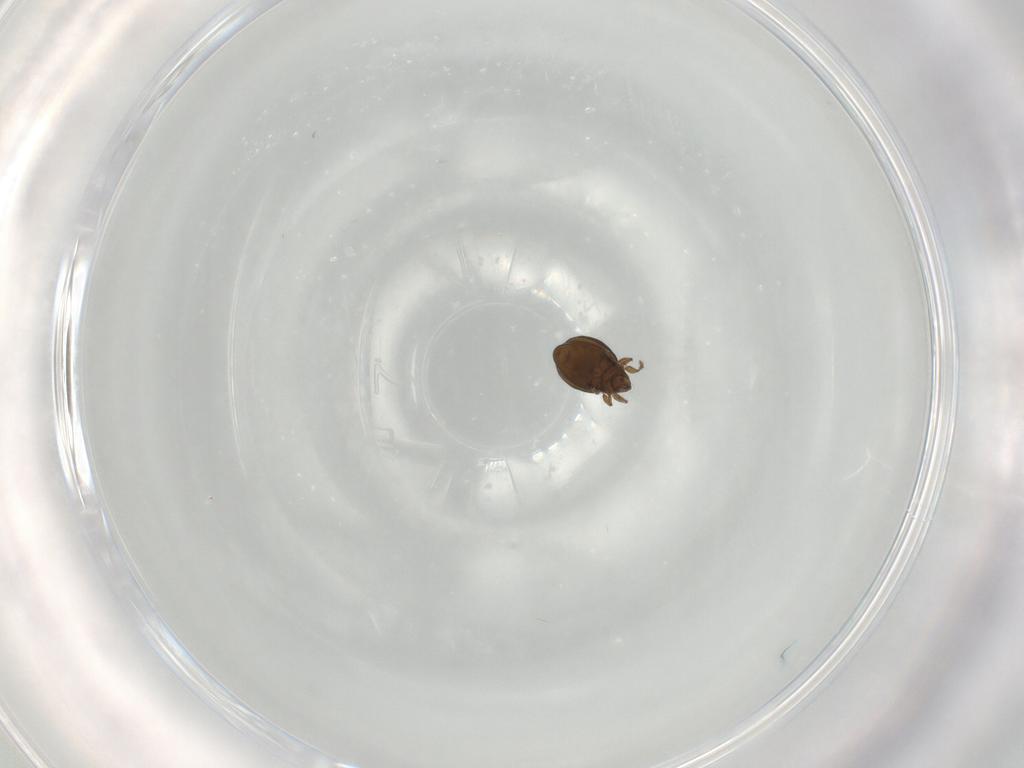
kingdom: Animalia
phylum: Arthropoda
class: Arachnida
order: Sarcoptiformes
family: Oribatulidae
